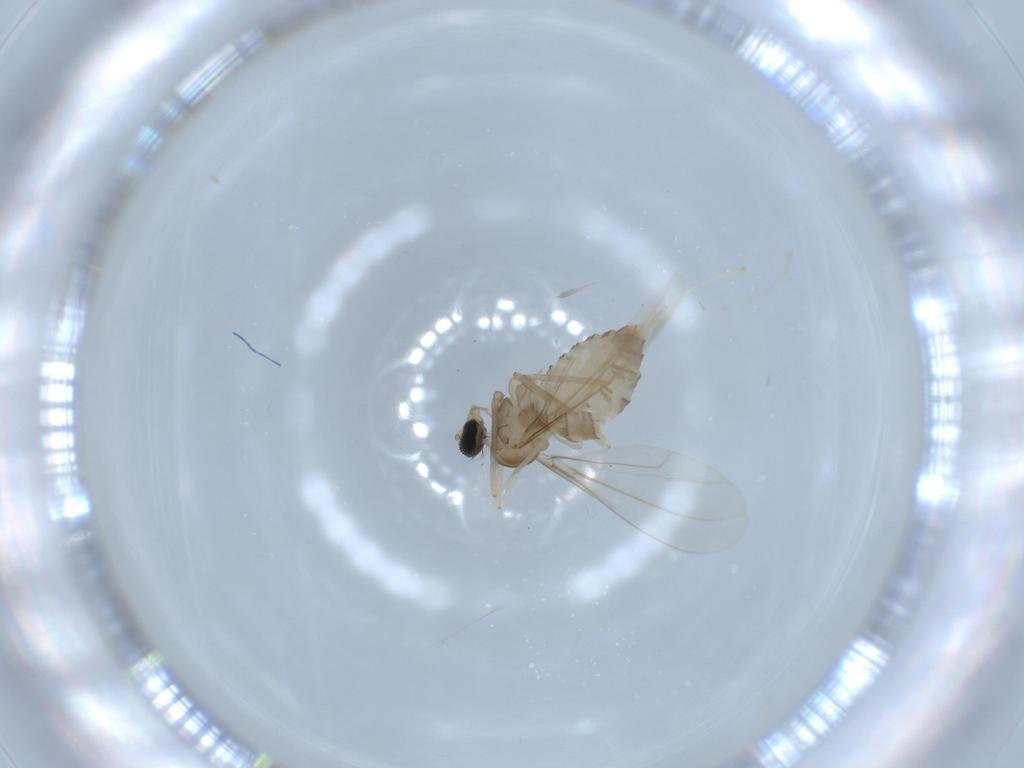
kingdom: Animalia
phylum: Arthropoda
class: Insecta
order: Diptera
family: Cecidomyiidae
